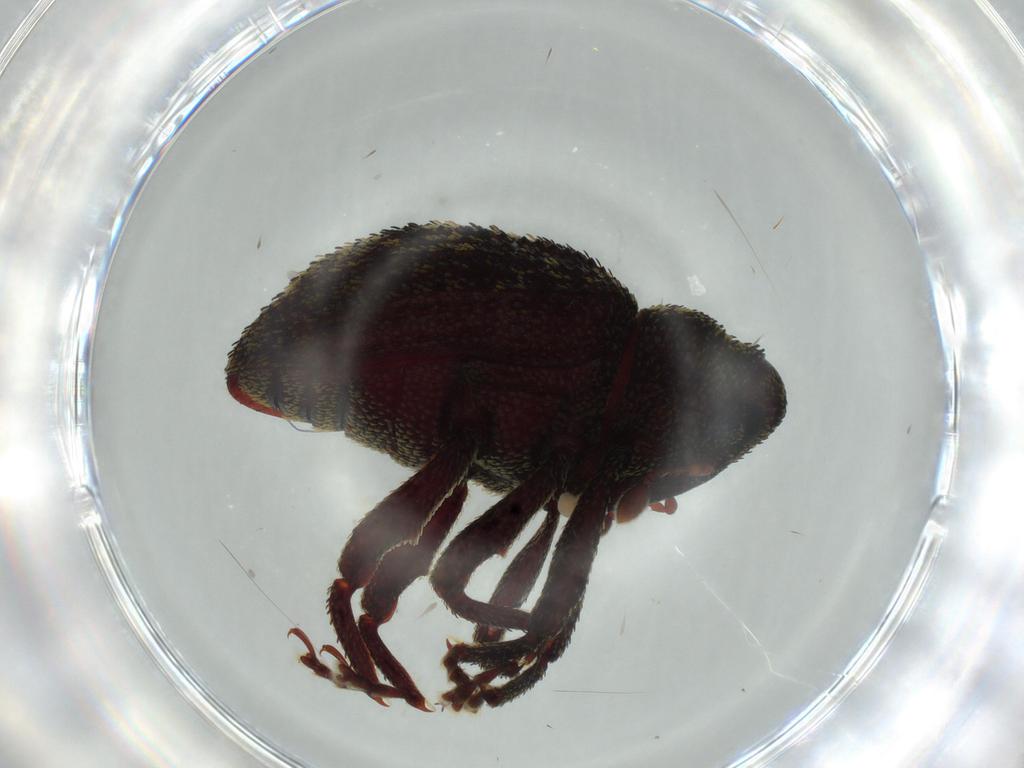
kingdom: Animalia
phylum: Arthropoda
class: Insecta
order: Coleoptera
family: Curculionidae
